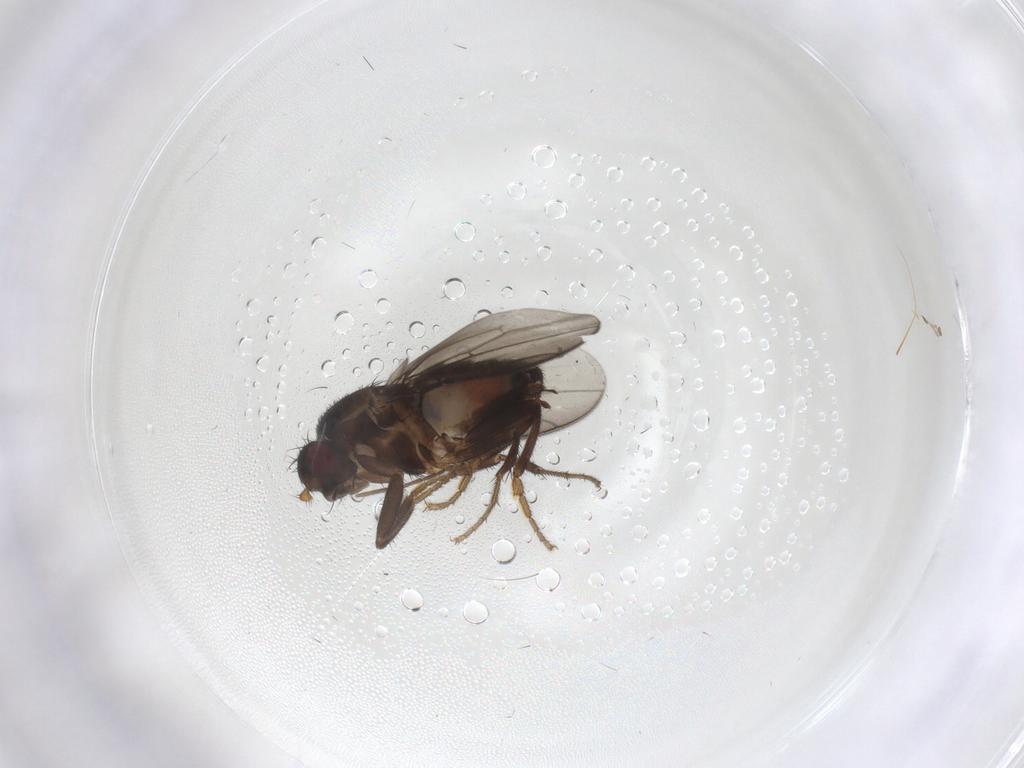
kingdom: Animalia
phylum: Arthropoda
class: Insecta
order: Diptera
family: Sphaeroceridae
